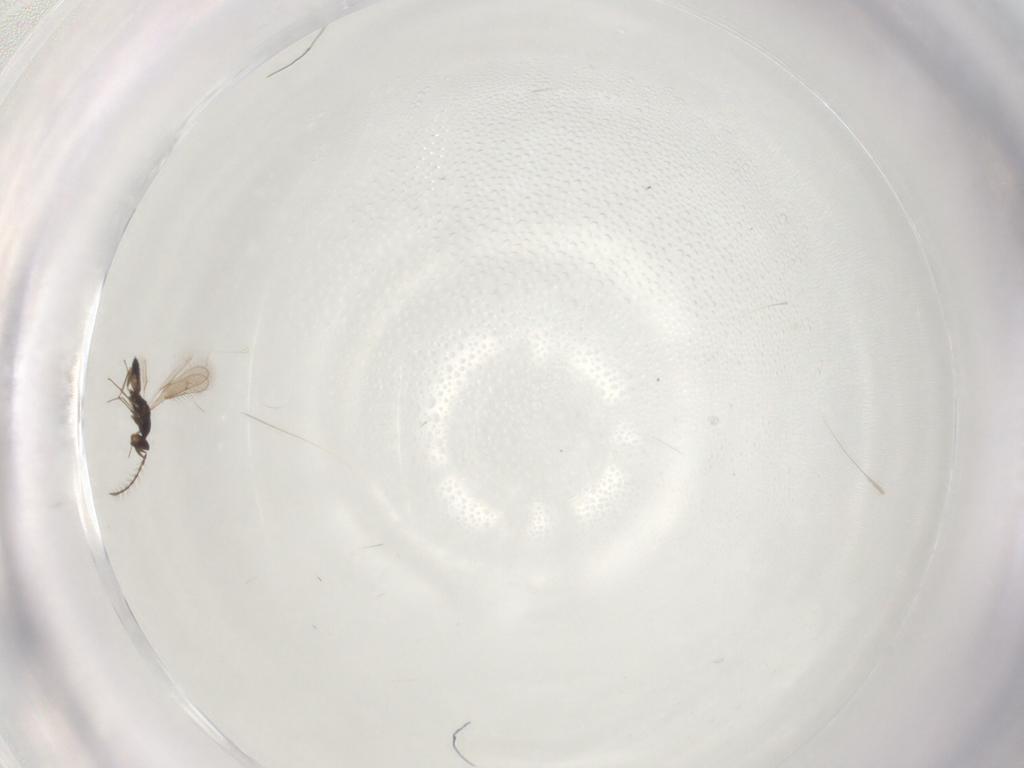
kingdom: Animalia
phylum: Arthropoda
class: Insecta
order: Hymenoptera
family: Pteromalidae
